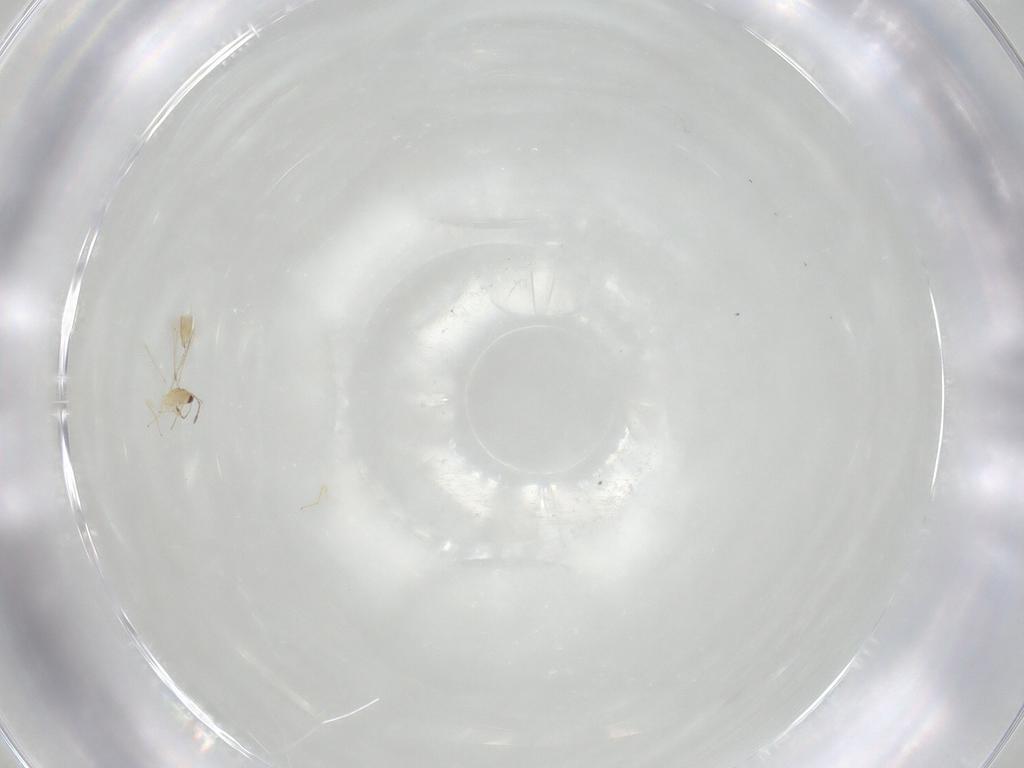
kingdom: Animalia
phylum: Arthropoda
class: Insecta
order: Hymenoptera
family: Mymaridae
